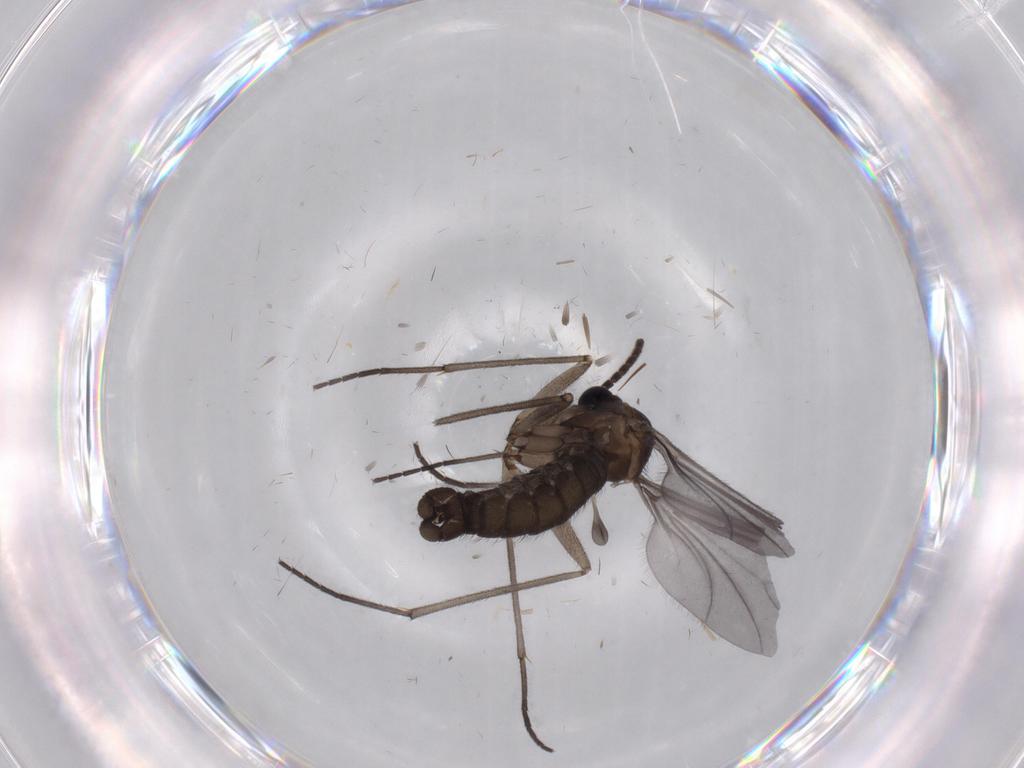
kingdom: Animalia
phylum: Arthropoda
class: Insecta
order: Diptera
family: Sciaridae
